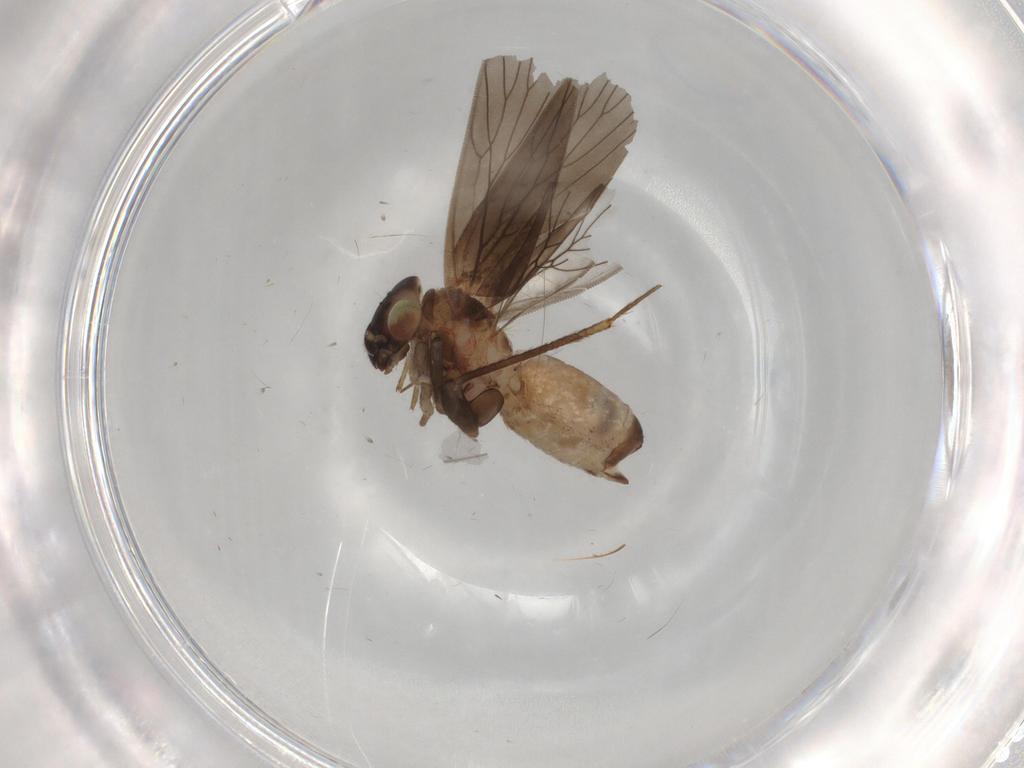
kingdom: Animalia
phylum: Arthropoda
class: Insecta
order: Psocodea
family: Lepidopsocidae
